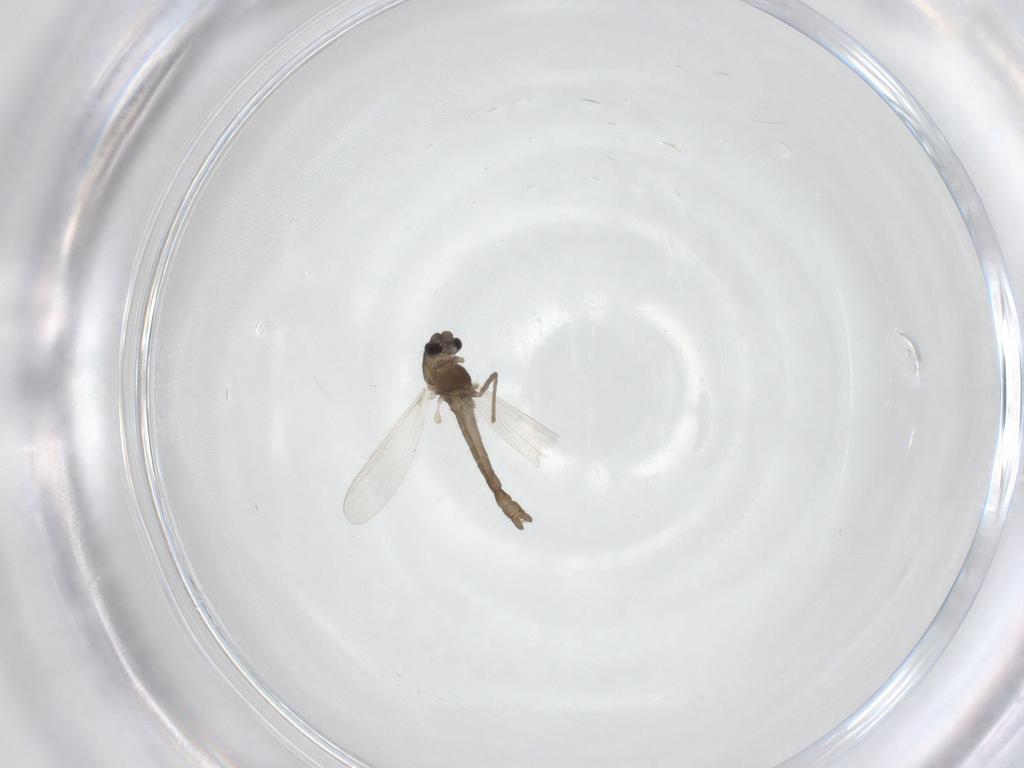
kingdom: Animalia
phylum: Arthropoda
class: Insecta
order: Diptera
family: Chironomidae
